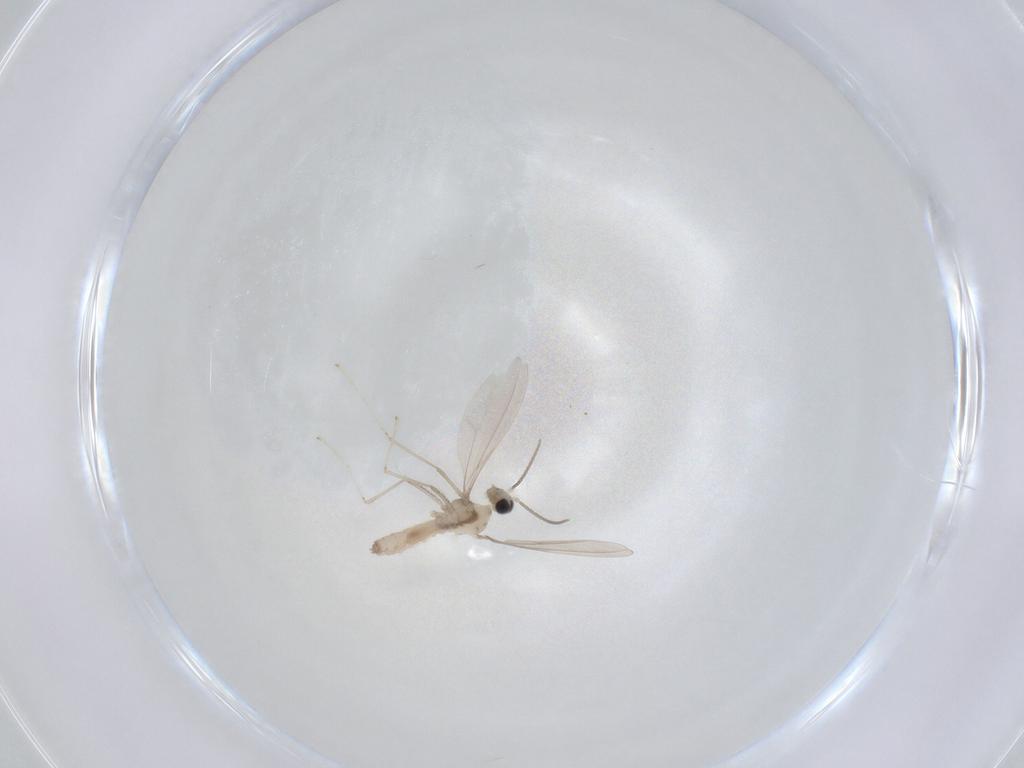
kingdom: Animalia
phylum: Arthropoda
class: Insecta
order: Diptera
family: Cecidomyiidae
